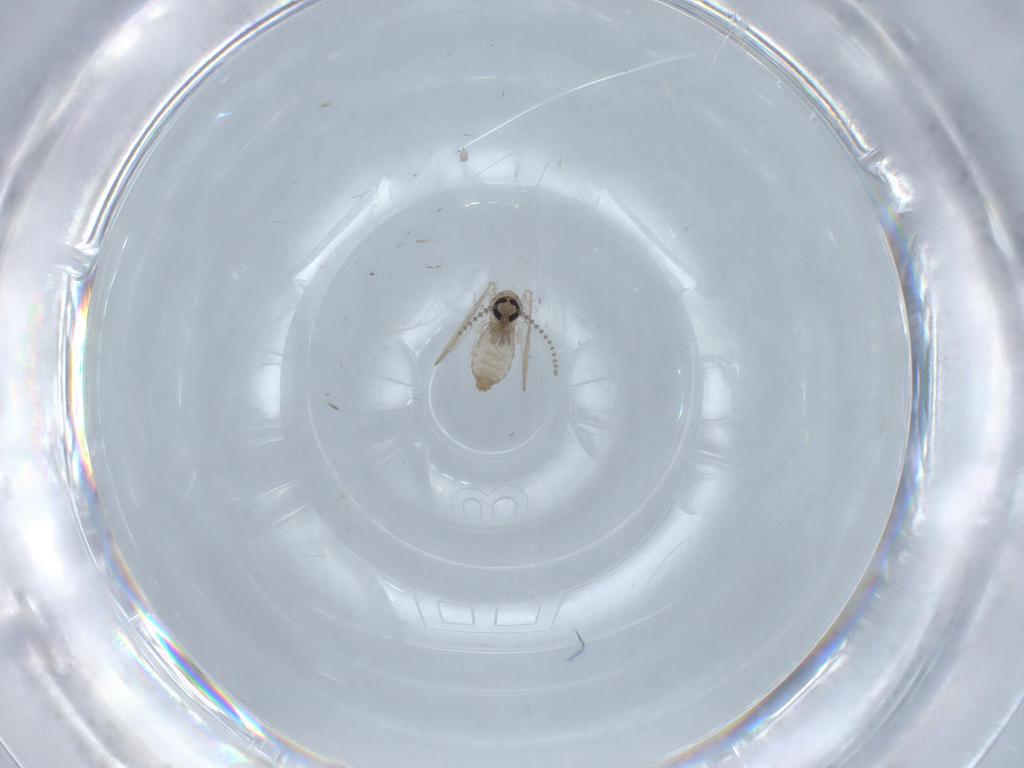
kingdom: Animalia
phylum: Arthropoda
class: Insecta
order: Diptera
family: Psychodidae
